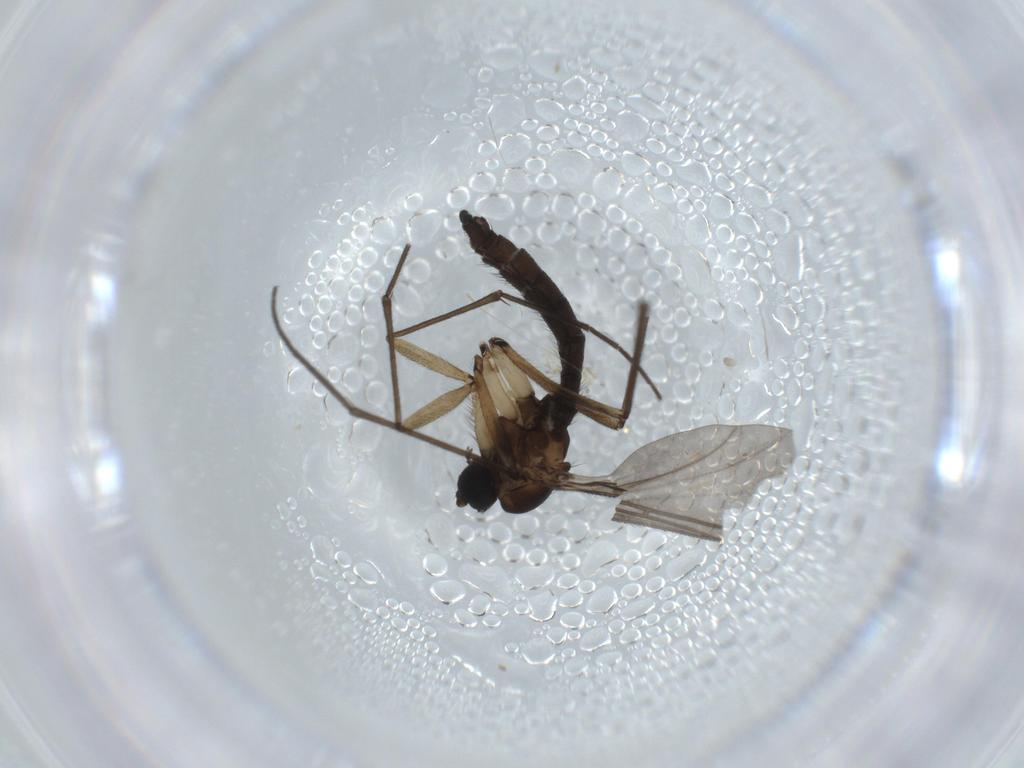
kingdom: Animalia
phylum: Arthropoda
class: Insecta
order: Diptera
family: Sciaridae
